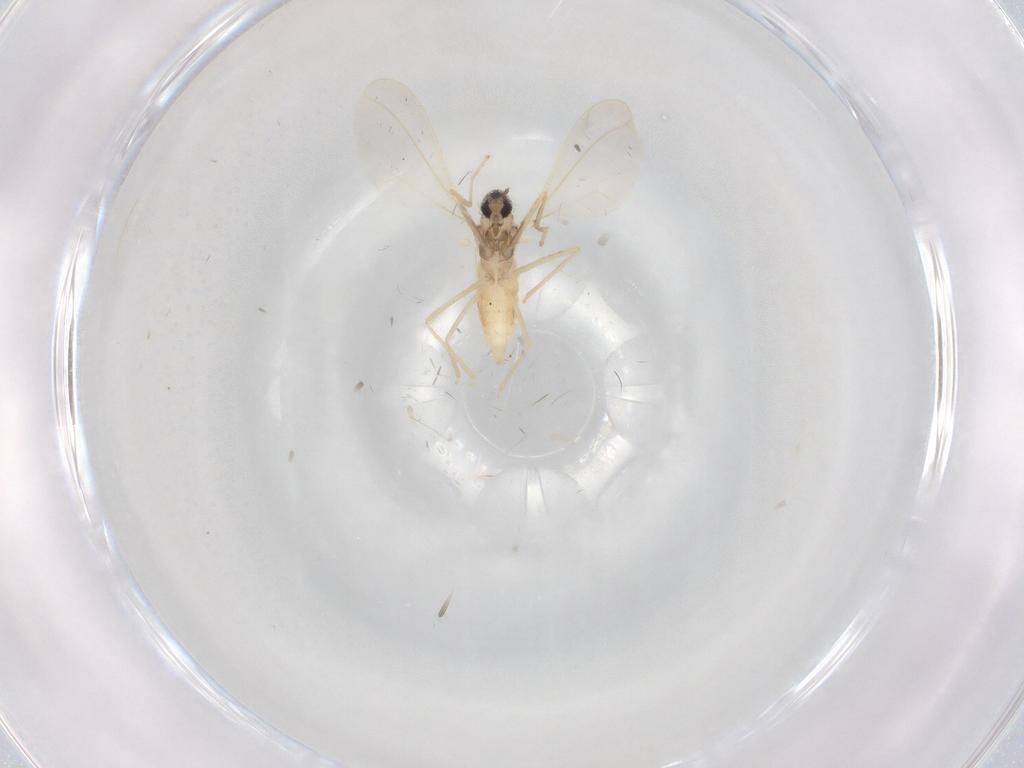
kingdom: Animalia
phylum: Arthropoda
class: Insecta
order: Diptera
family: Cecidomyiidae
